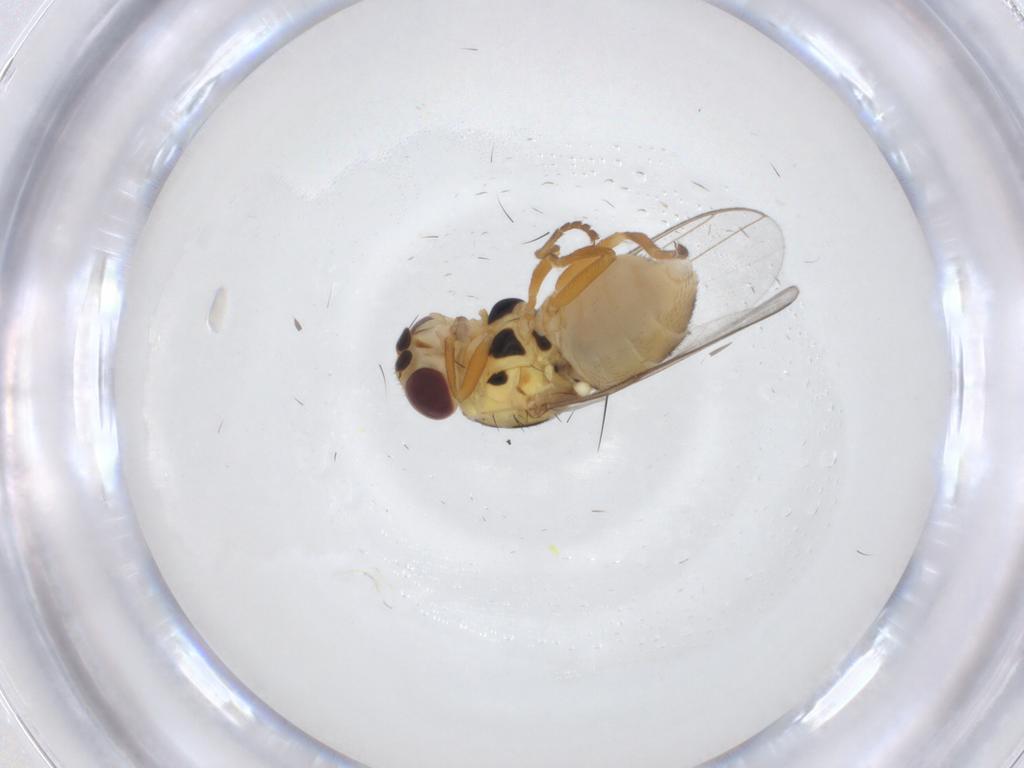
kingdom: Animalia
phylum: Arthropoda
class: Insecta
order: Diptera
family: Chloropidae
